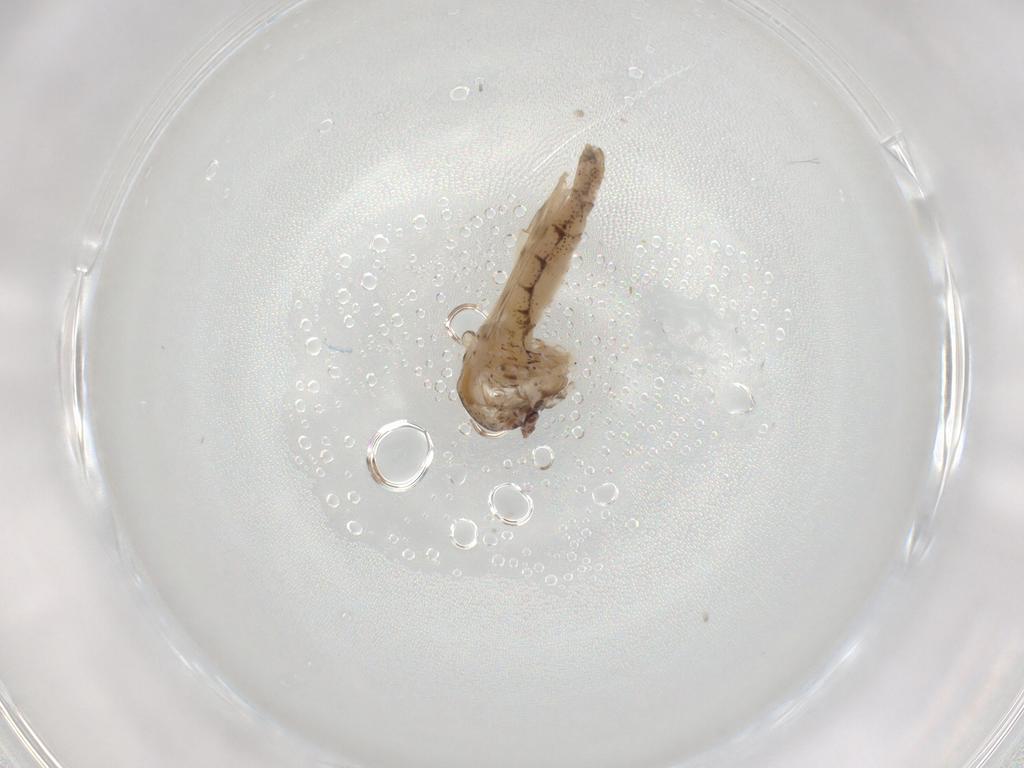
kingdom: Animalia
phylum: Arthropoda
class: Insecta
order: Diptera
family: Chaoboridae
